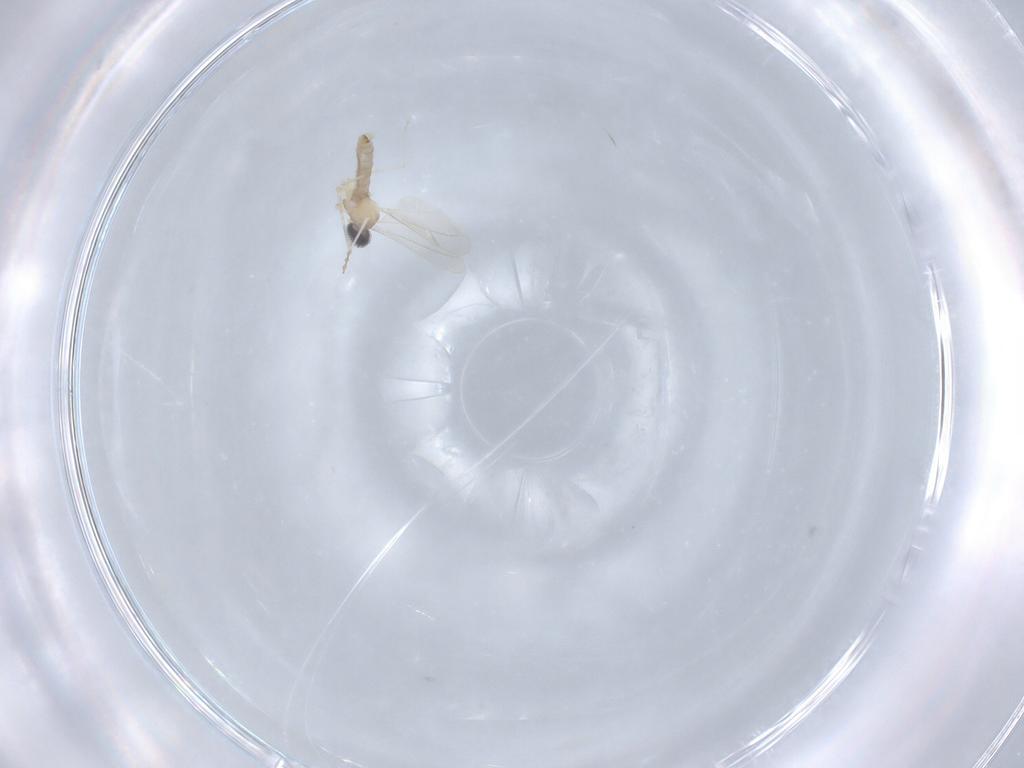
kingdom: Animalia
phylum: Arthropoda
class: Insecta
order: Diptera
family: Cecidomyiidae
